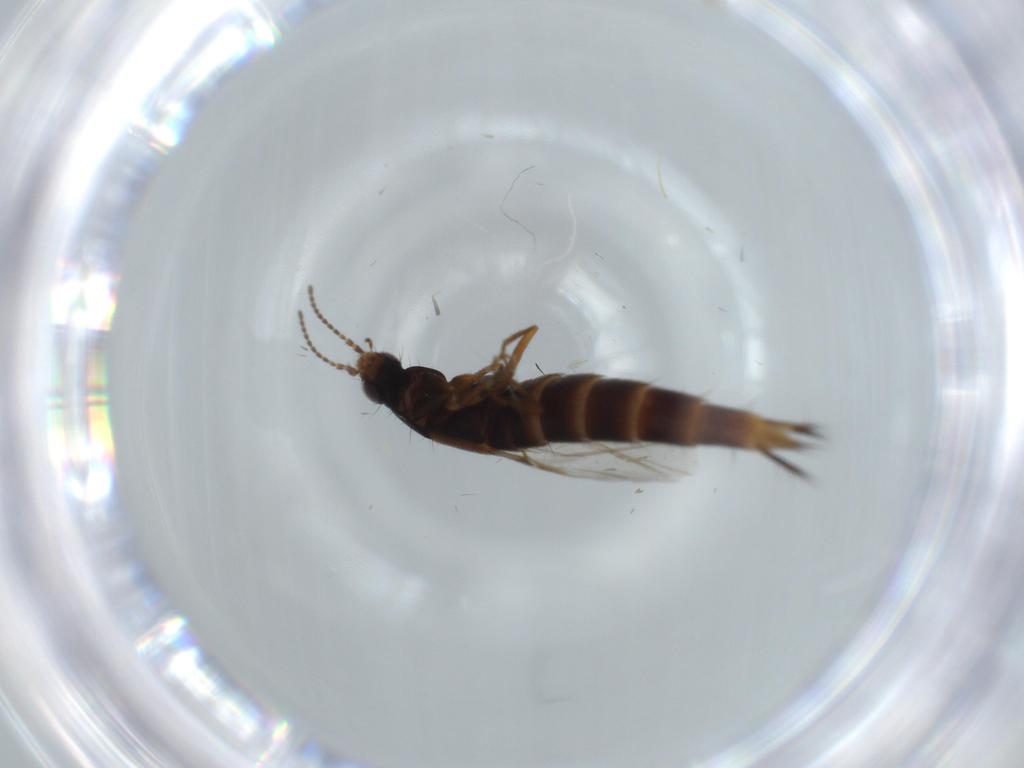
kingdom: Animalia
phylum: Arthropoda
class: Insecta
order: Coleoptera
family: Staphylinidae
